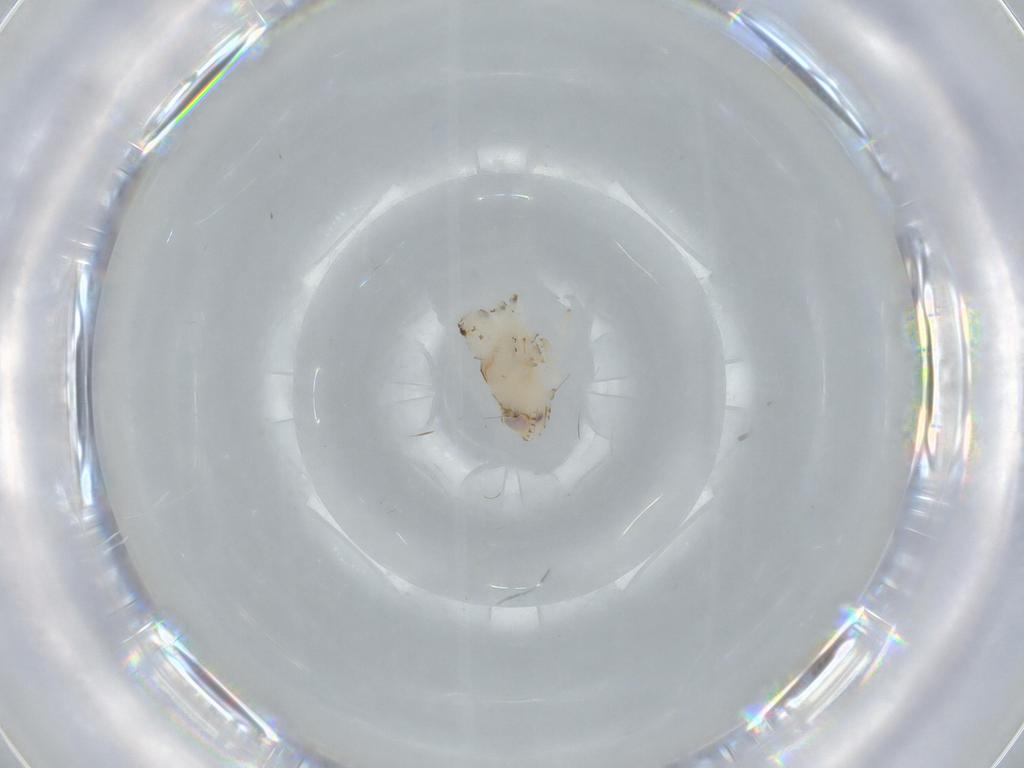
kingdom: Animalia
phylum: Arthropoda
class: Insecta
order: Hemiptera
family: Nogodinidae
